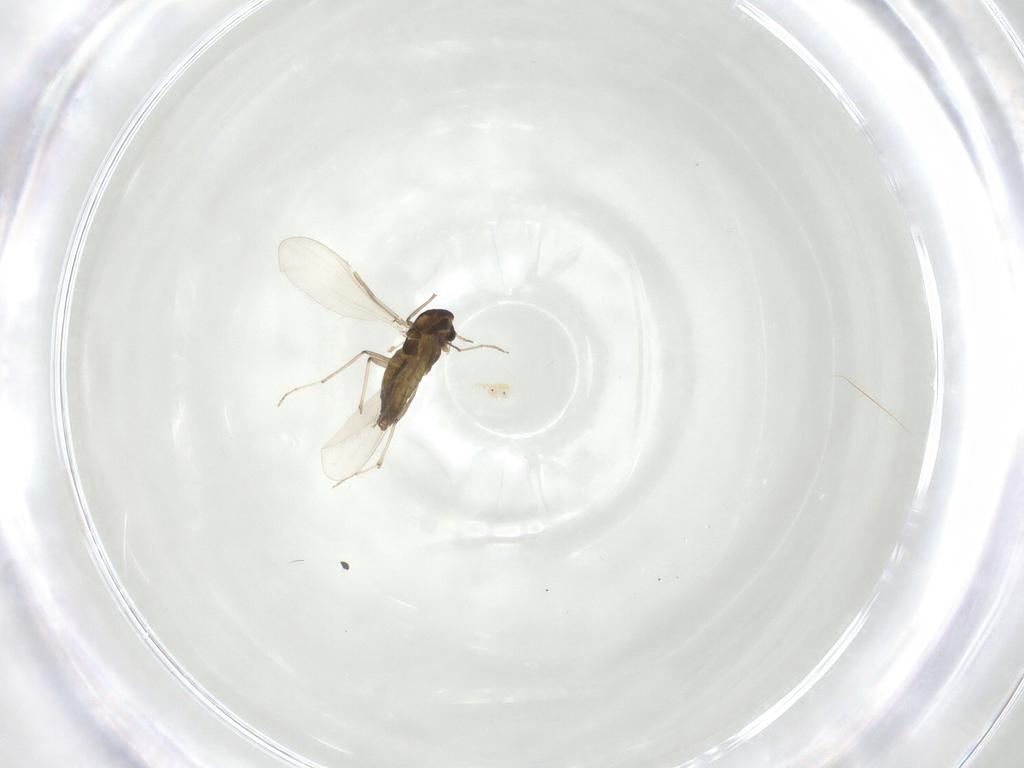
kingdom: Animalia
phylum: Arthropoda
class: Insecta
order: Diptera
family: Chironomidae
